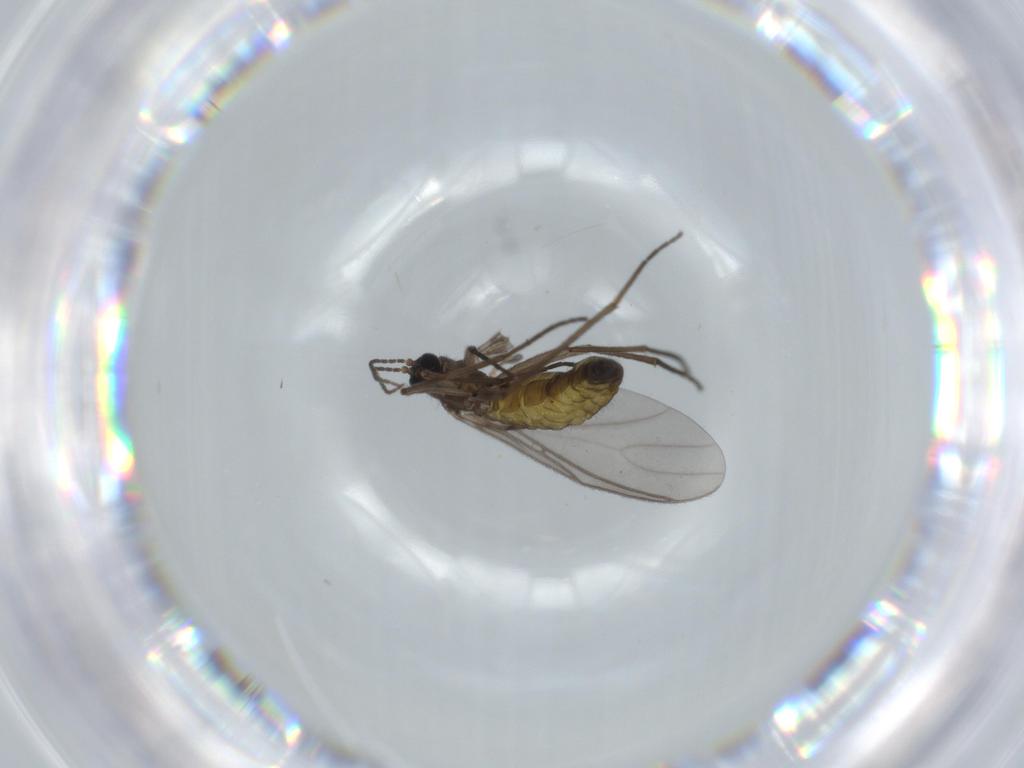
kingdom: Animalia
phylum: Arthropoda
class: Insecta
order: Diptera
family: Sciaridae
